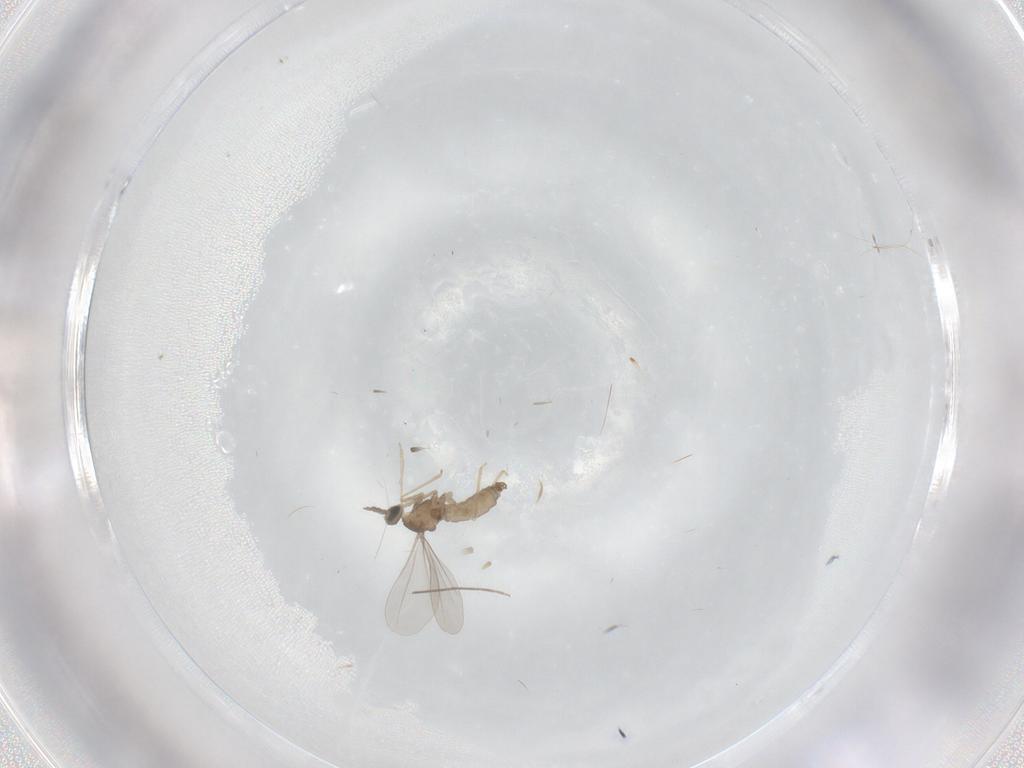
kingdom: Animalia
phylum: Arthropoda
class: Insecta
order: Diptera
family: Chironomidae
